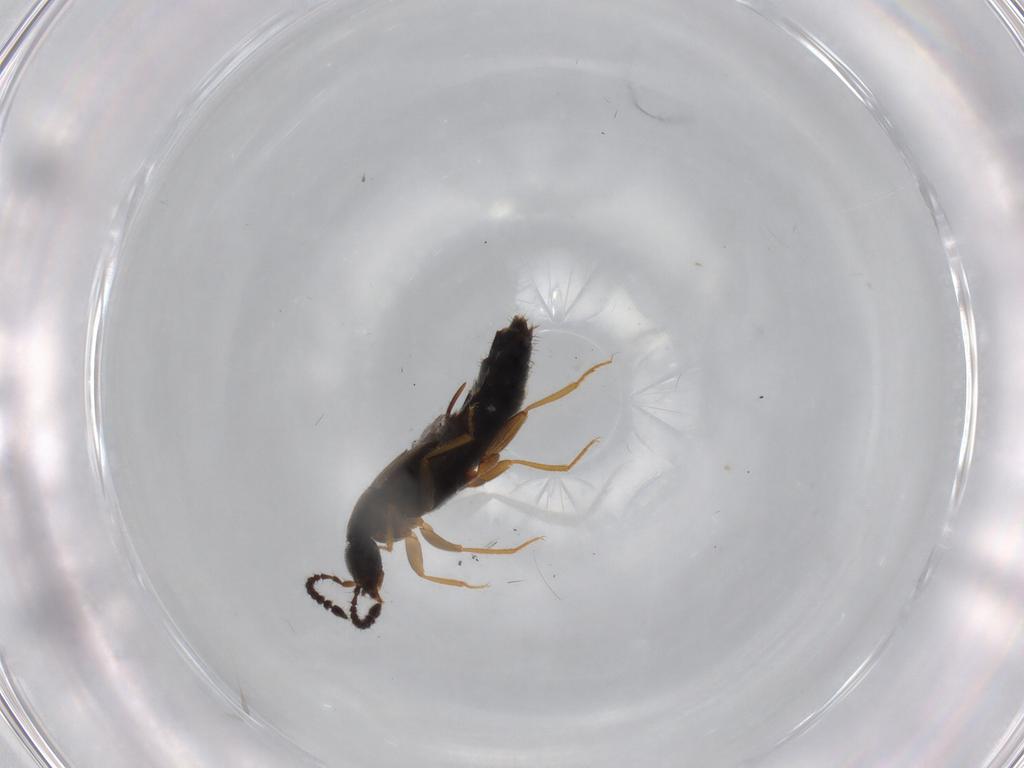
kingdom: Animalia
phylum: Arthropoda
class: Insecta
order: Coleoptera
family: Staphylinidae
